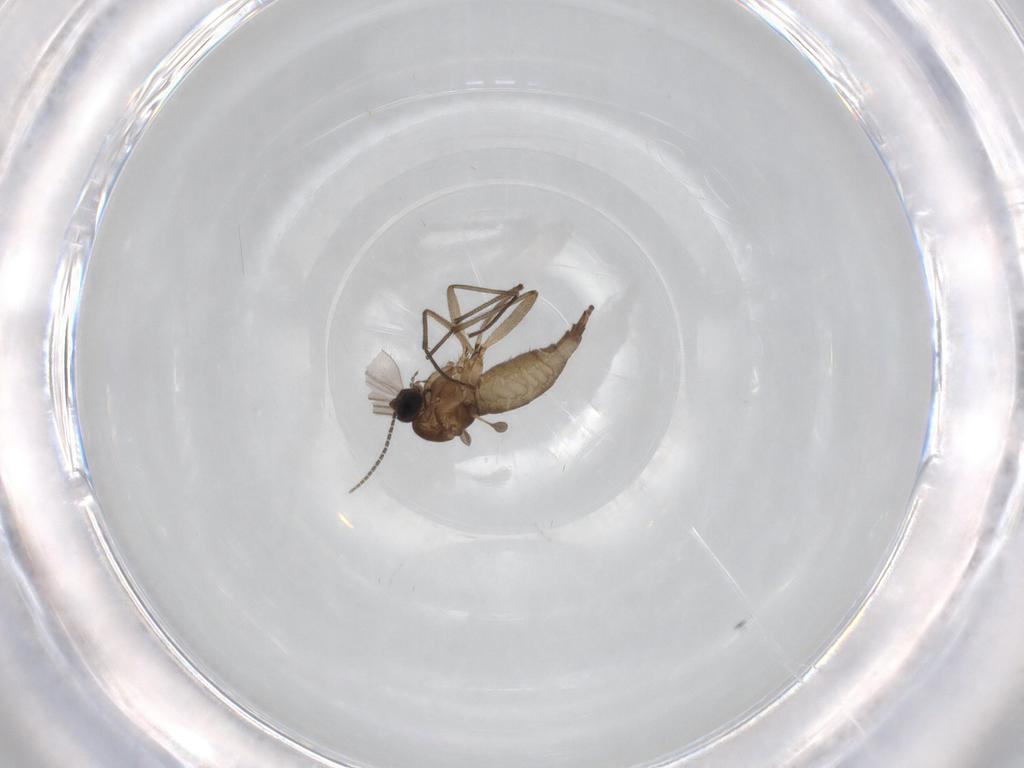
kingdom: Animalia
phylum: Arthropoda
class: Insecta
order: Diptera
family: Sciaridae
